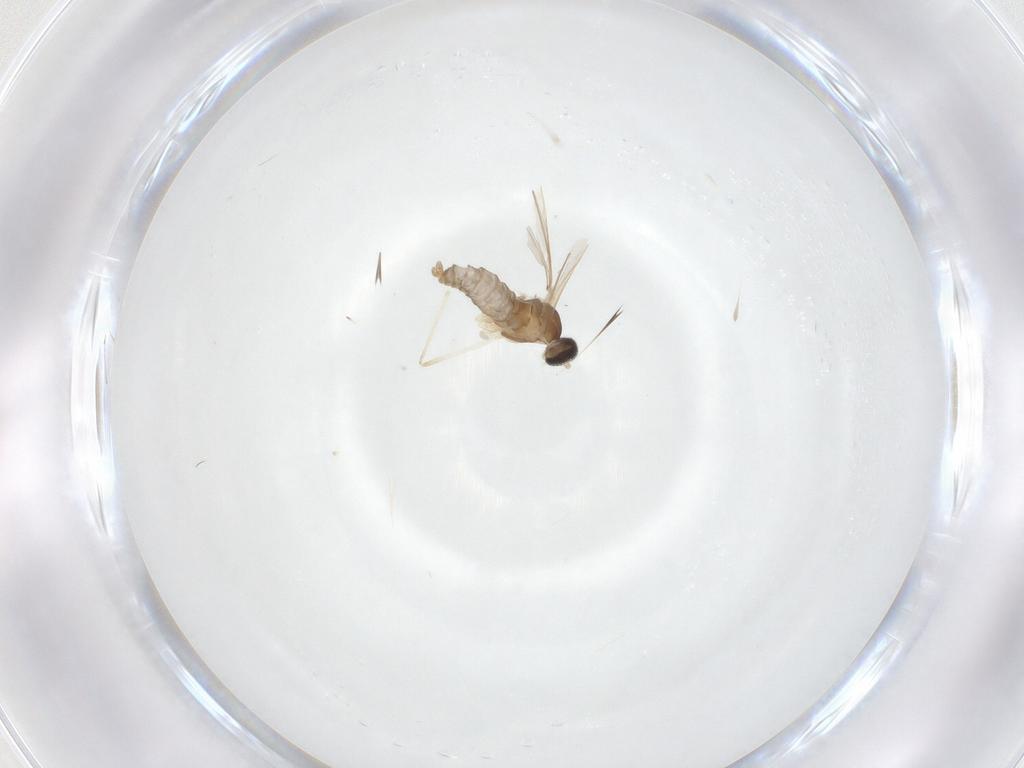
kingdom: Animalia
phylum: Arthropoda
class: Insecta
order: Diptera
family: Cecidomyiidae
